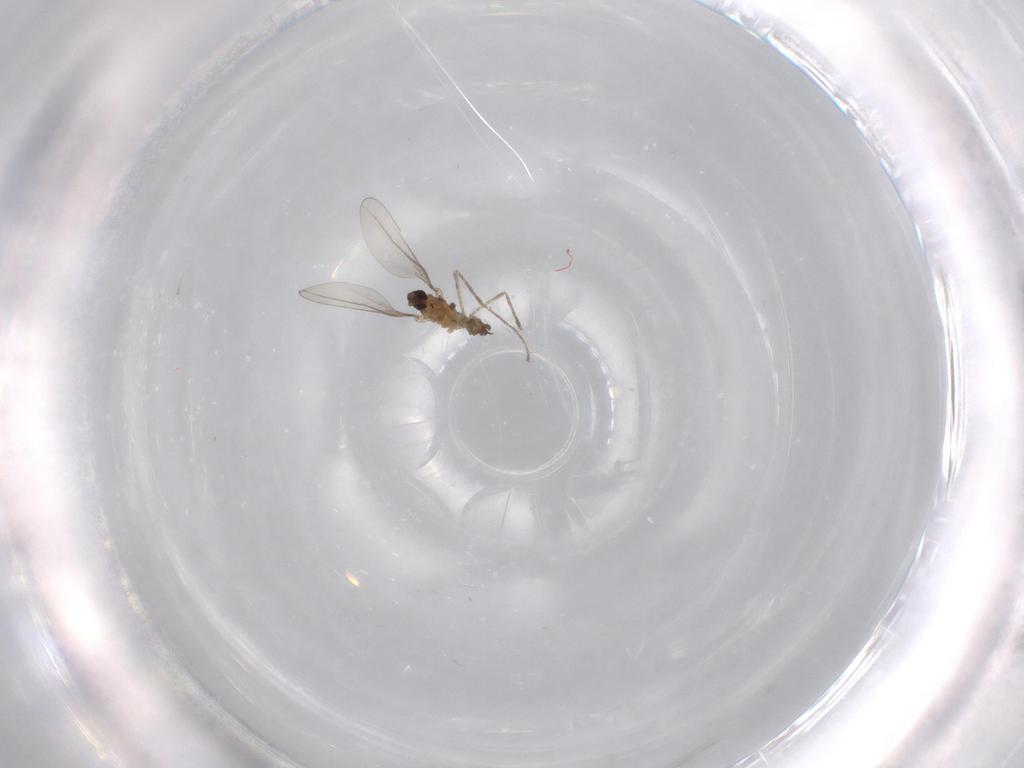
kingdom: Animalia
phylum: Arthropoda
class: Insecta
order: Diptera
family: Cecidomyiidae
